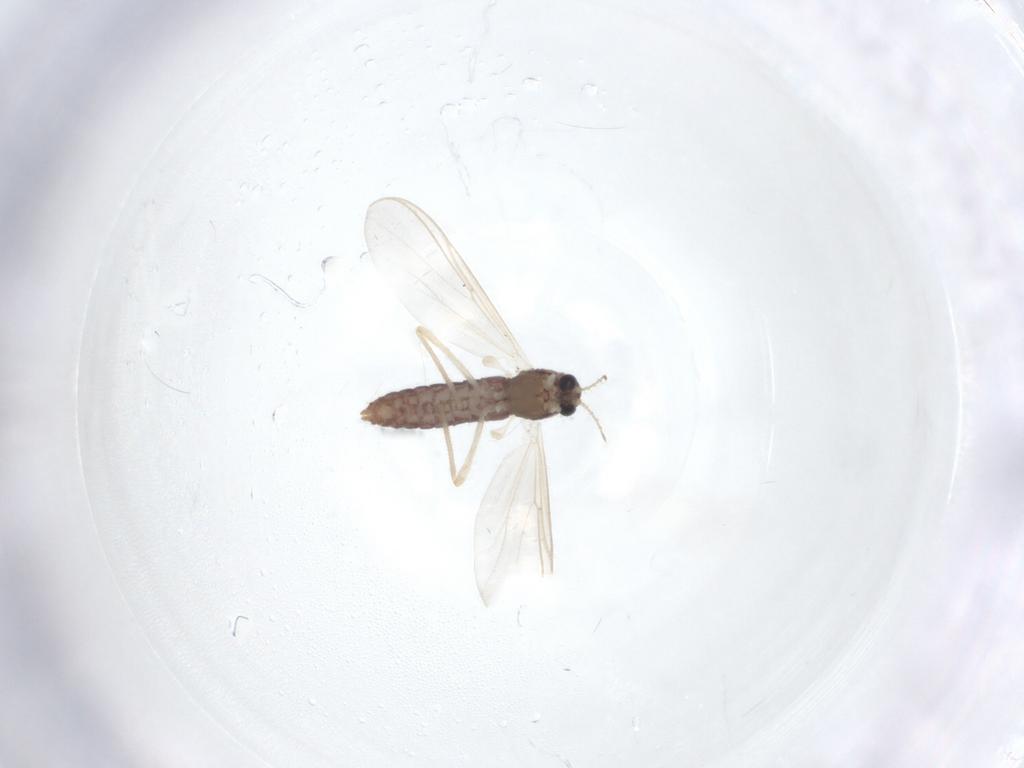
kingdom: Animalia
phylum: Arthropoda
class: Insecta
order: Diptera
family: Chironomidae
